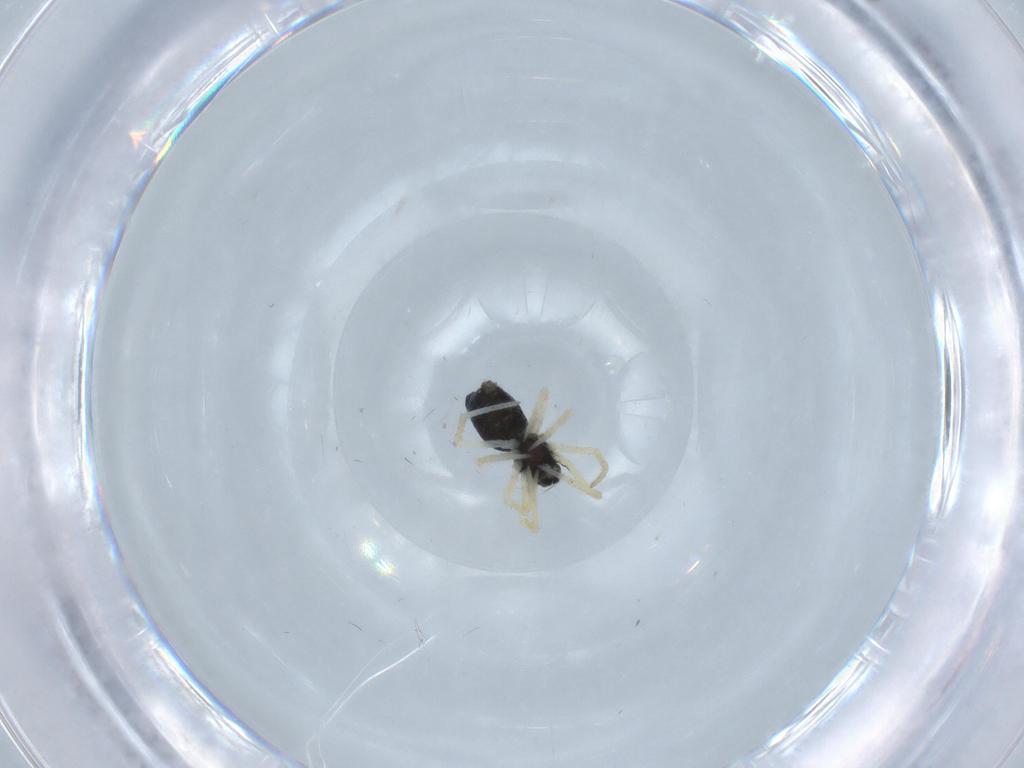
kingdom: Animalia
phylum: Arthropoda
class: Arachnida
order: Araneae
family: Theridiidae
